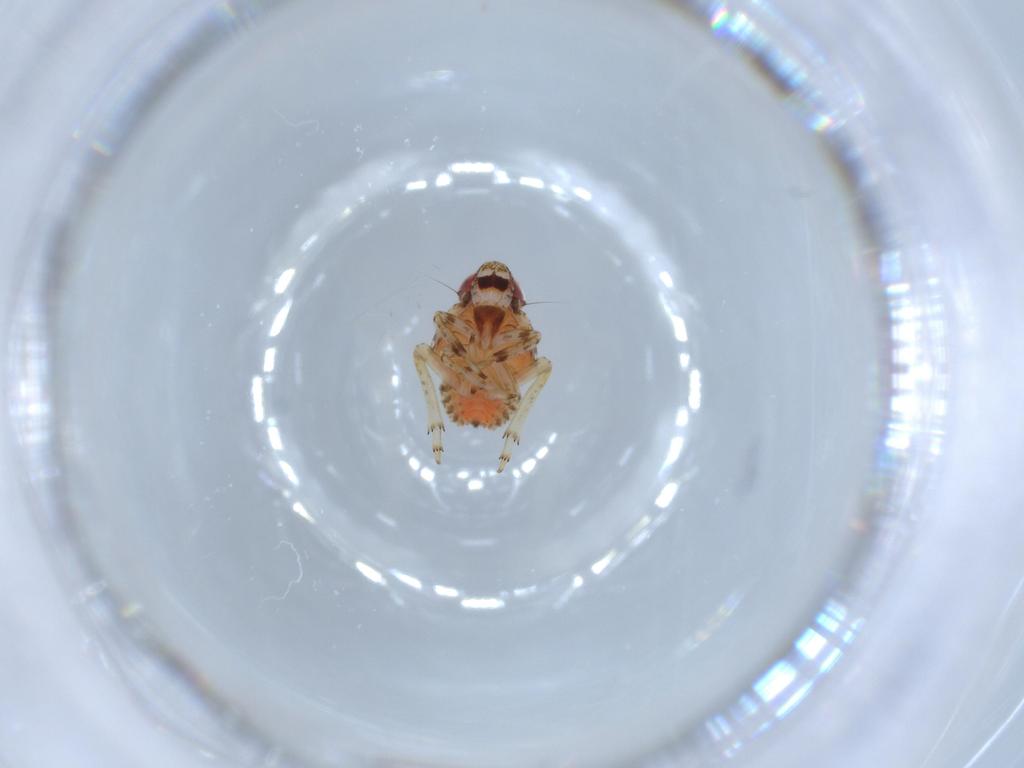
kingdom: Animalia
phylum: Arthropoda
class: Insecta
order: Hemiptera
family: Issidae
